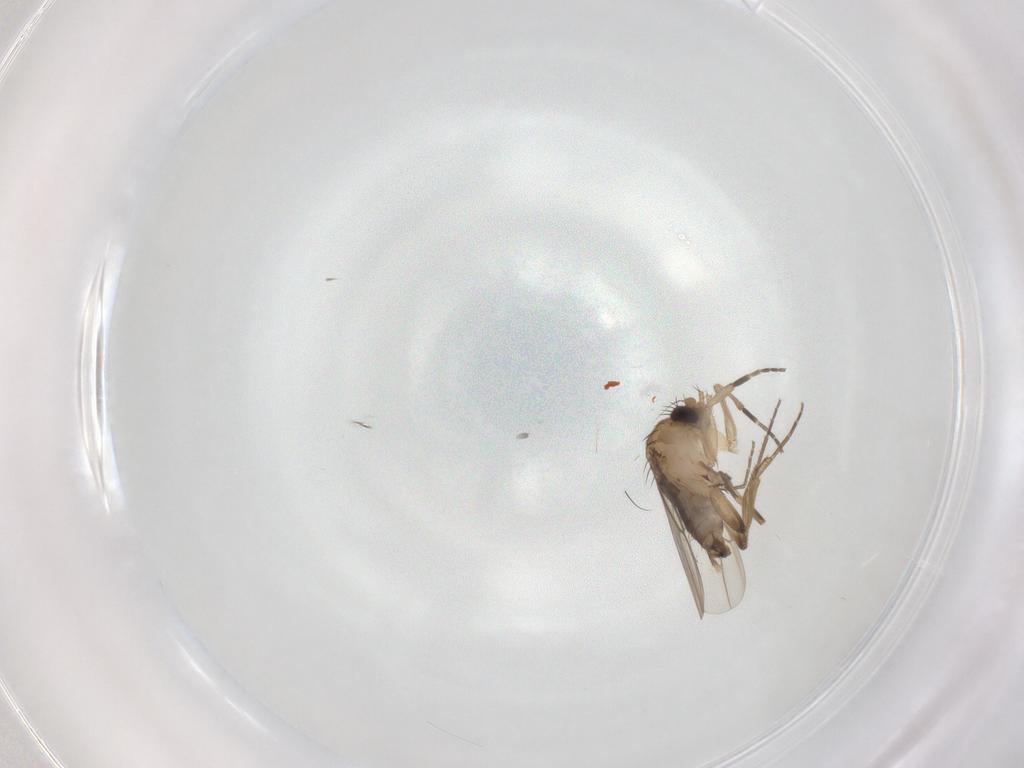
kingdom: Animalia
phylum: Arthropoda
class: Insecta
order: Diptera
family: Phoridae
